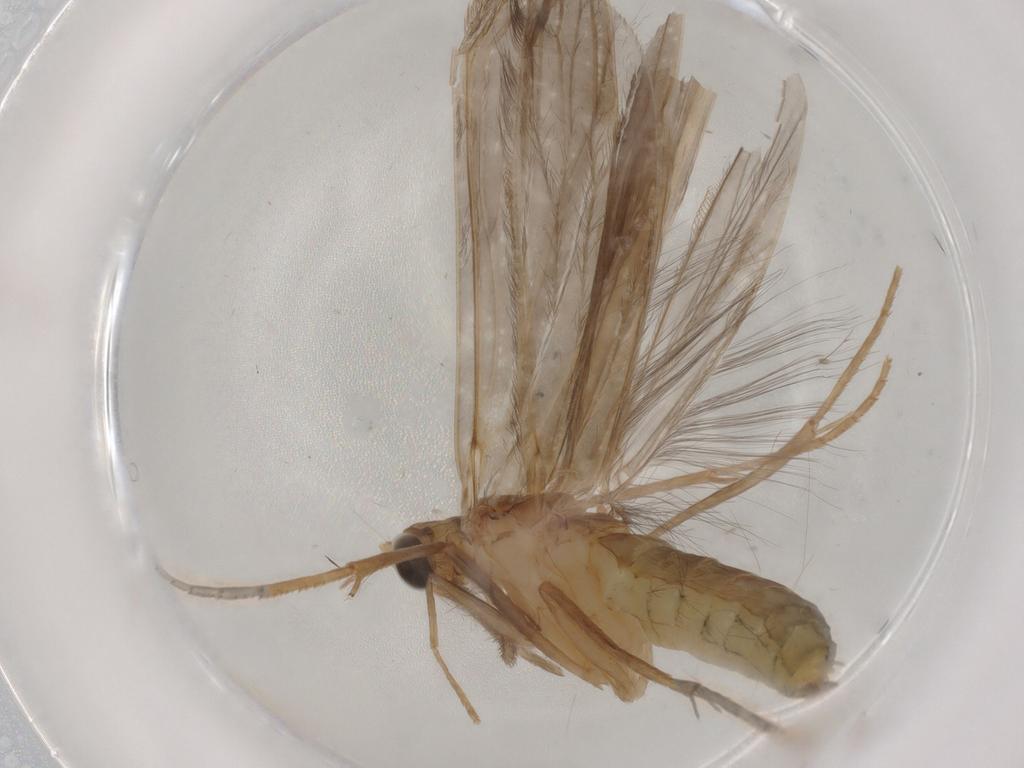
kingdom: Animalia
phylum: Arthropoda
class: Insecta
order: Trichoptera
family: Leptoceridae
